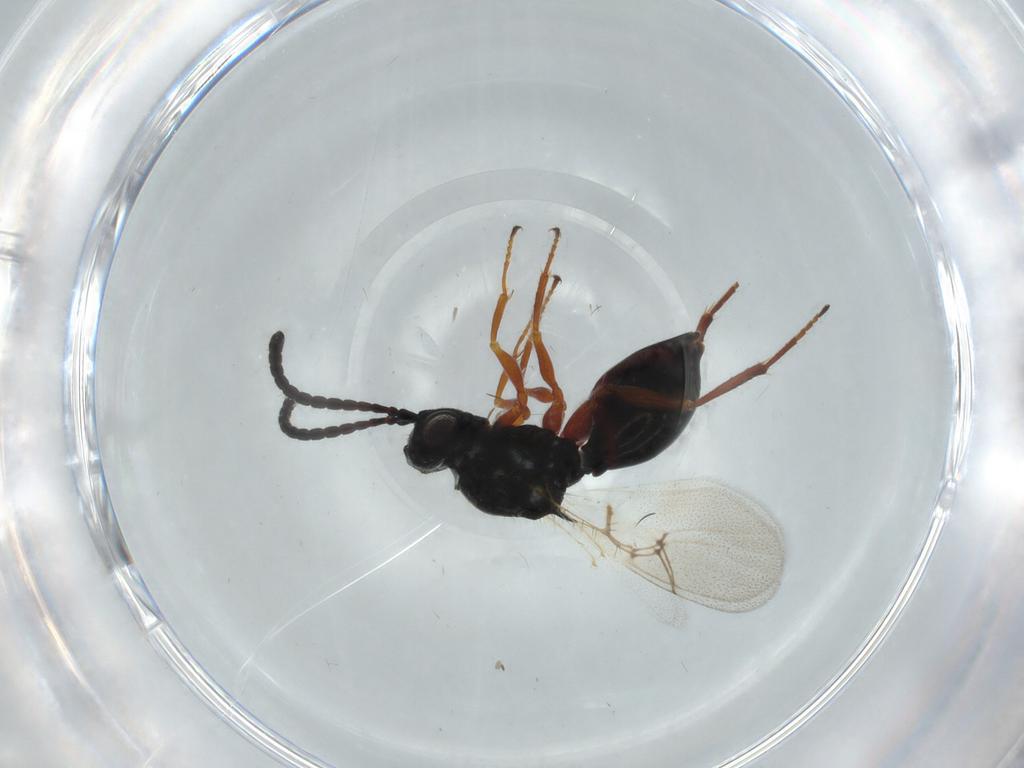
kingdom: Animalia
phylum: Arthropoda
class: Insecta
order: Hymenoptera
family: Figitidae
